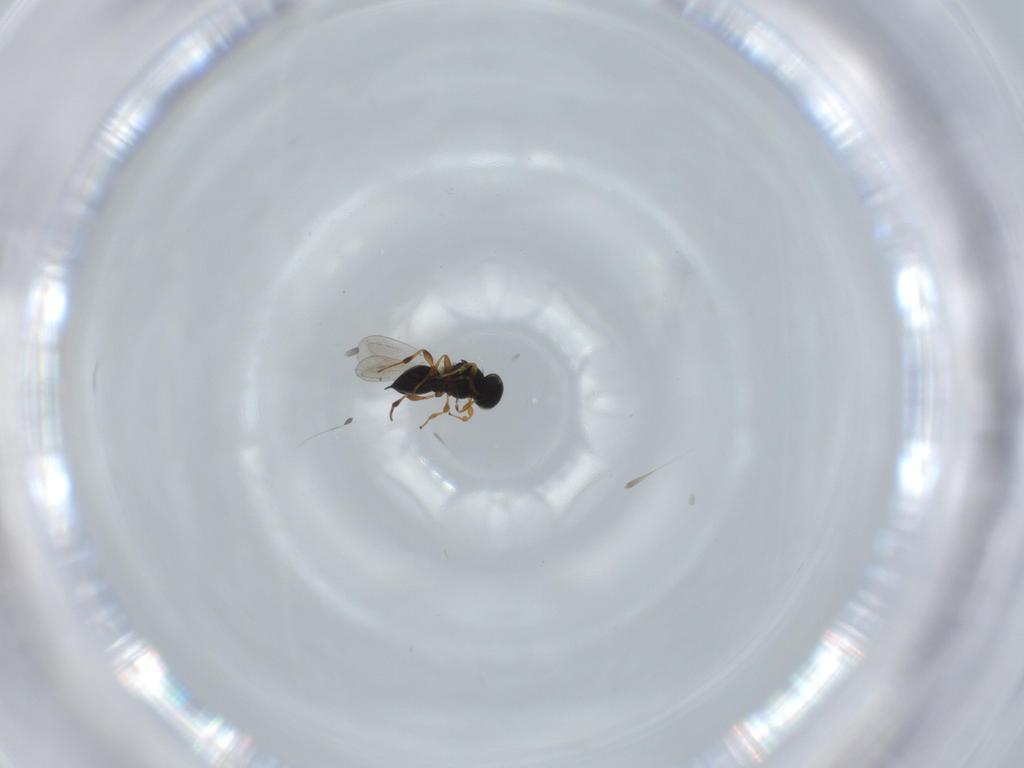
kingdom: Animalia
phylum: Arthropoda
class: Insecta
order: Hymenoptera
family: Platygastridae
